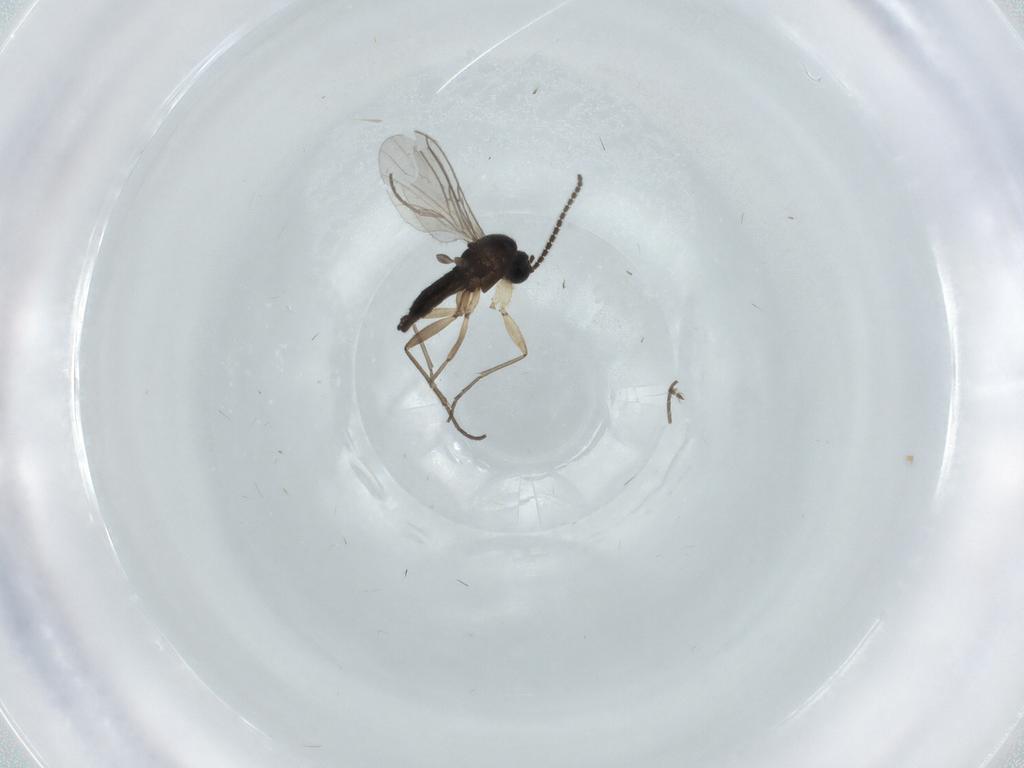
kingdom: Animalia
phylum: Arthropoda
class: Insecta
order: Diptera
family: Sciaridae
